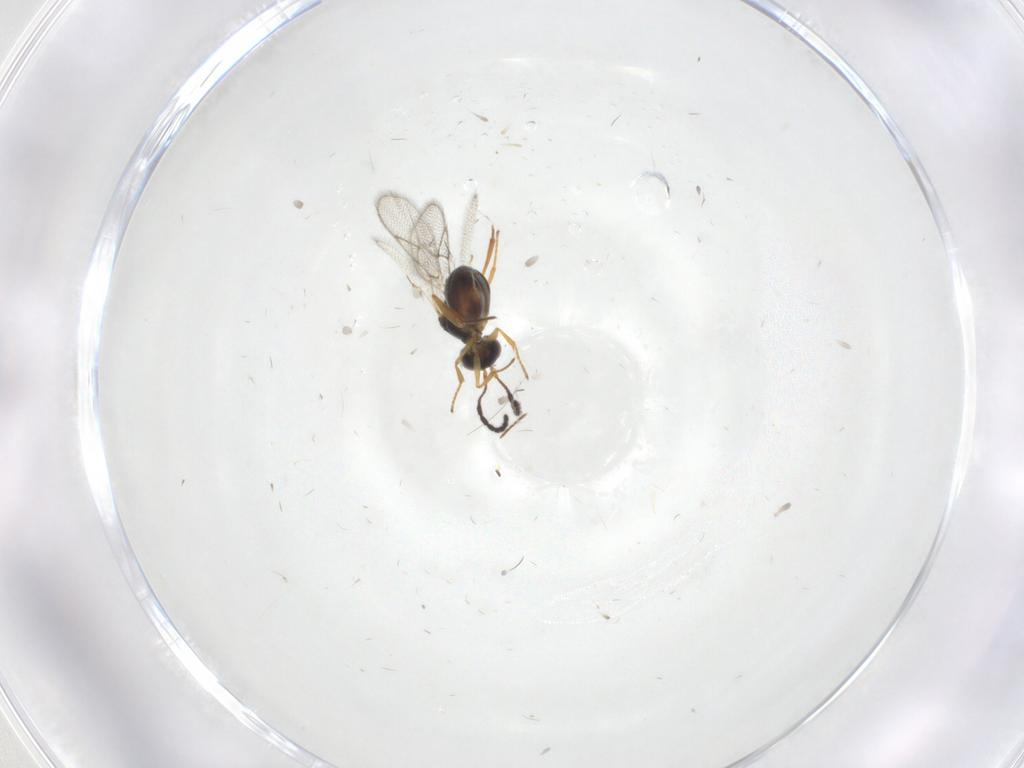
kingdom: Animalia
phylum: Arthropoda
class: Insecta
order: Hymenoptera
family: Figitidae
